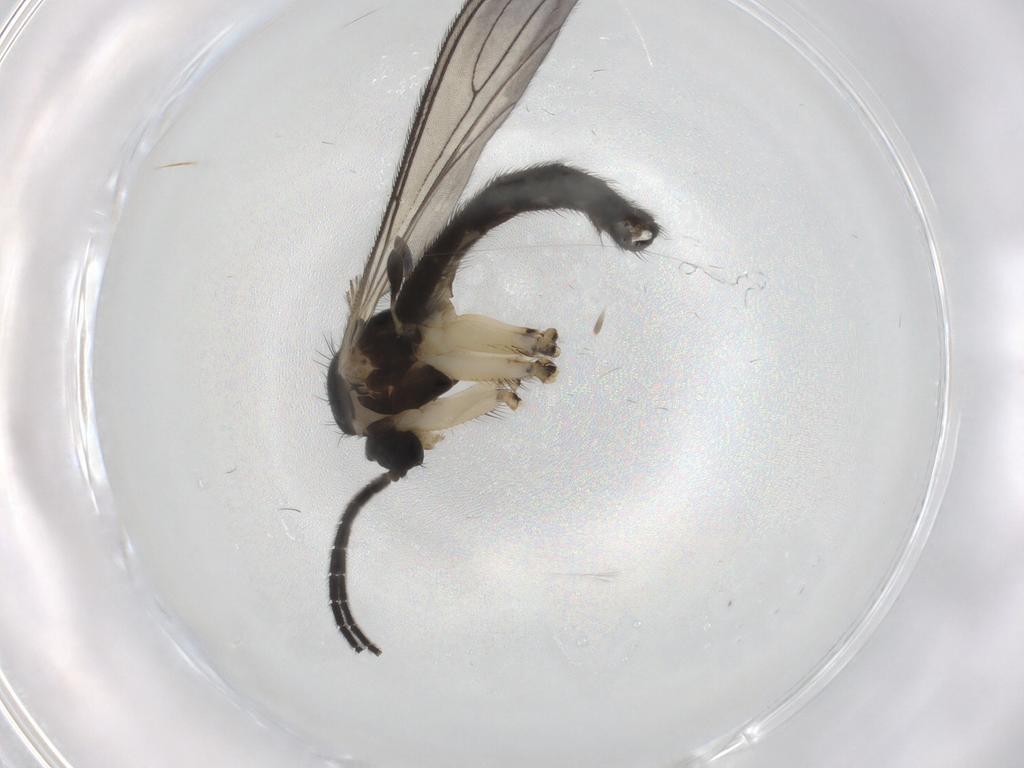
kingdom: Animalia
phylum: Arthropoda
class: Insecta
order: Diptera
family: Sciaridae
